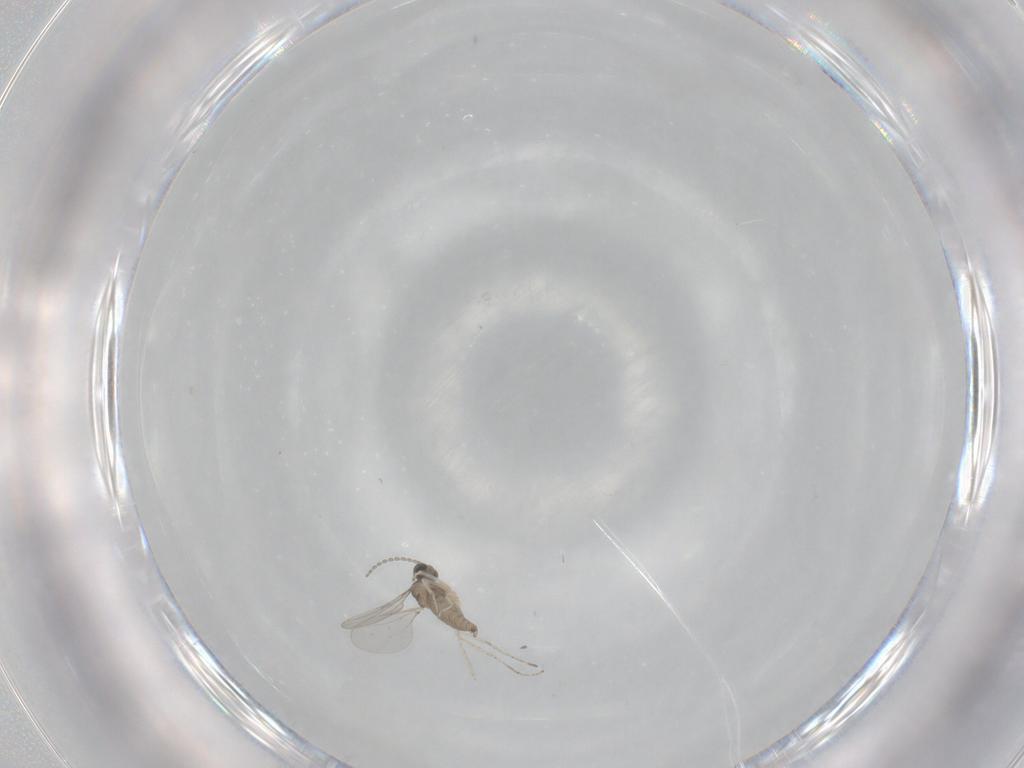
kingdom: Animalia
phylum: Arthropoda
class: Insecta
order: Diptera
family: Cecidomyiidae
